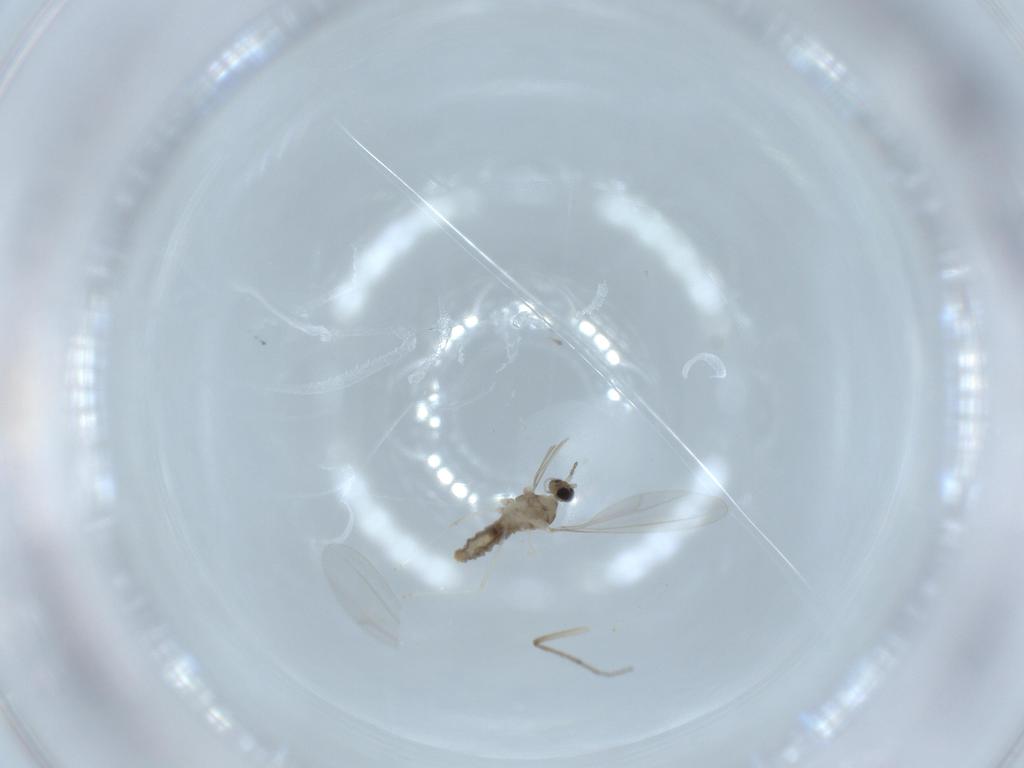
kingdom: Animalia
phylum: Arthropoda
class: Insecta
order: Diptera
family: Cecidomyiidae
